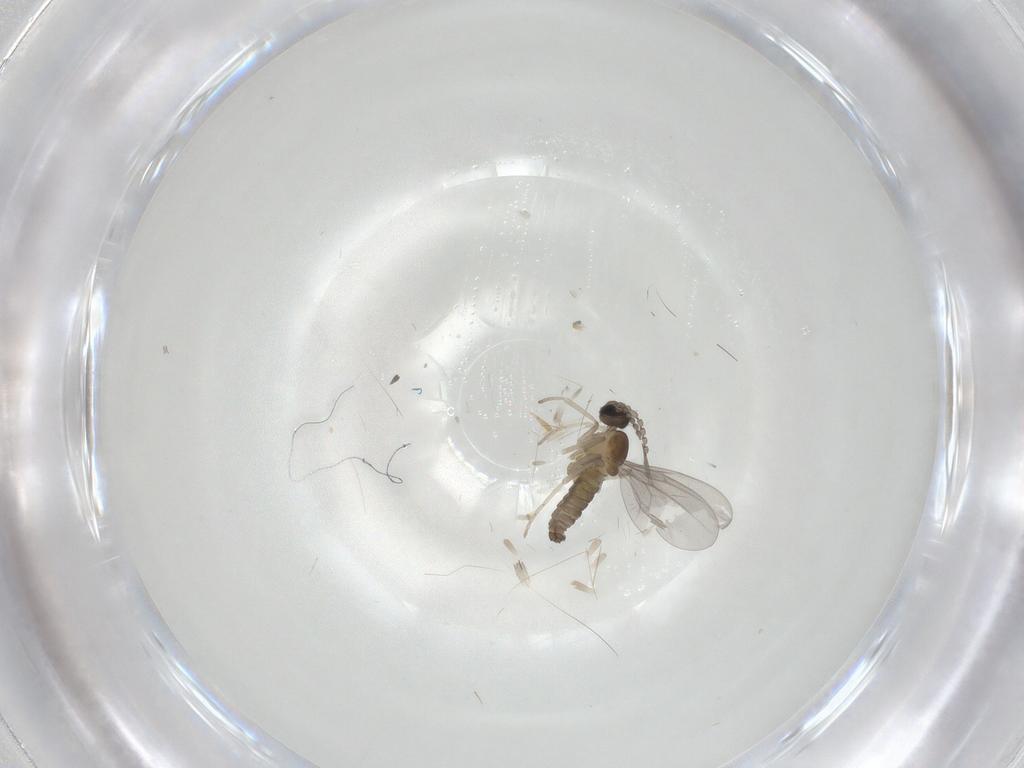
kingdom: Animalia
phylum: Arthropoda
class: Insecta
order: Diptera
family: Cecidomyiidae
